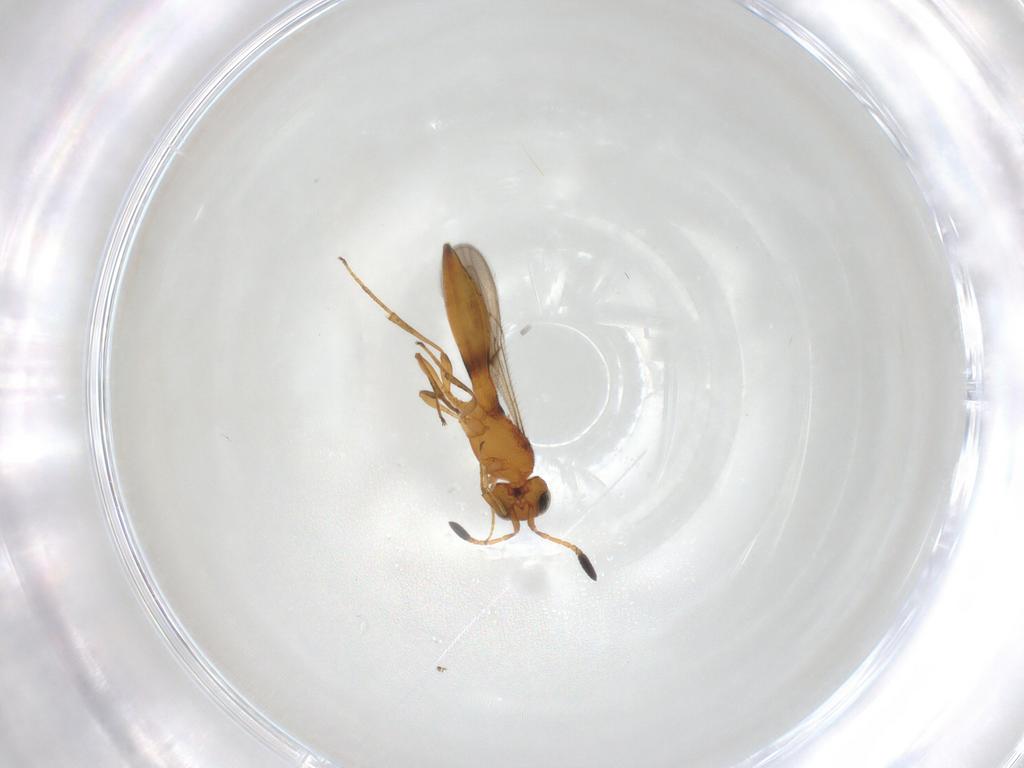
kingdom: Animalia
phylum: Arthropoda
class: Insecta
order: Hymenoptera
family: Scelionidae
